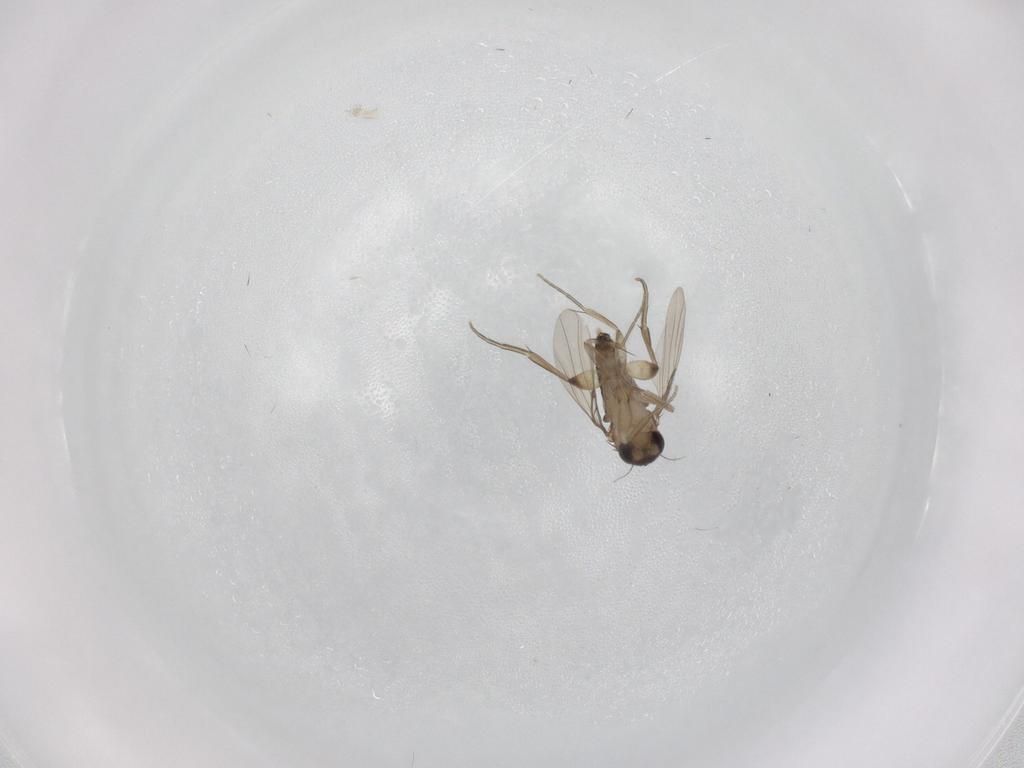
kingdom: Animalia
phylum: Arthropoda
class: Insecta
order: Diptera
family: Phoridae
